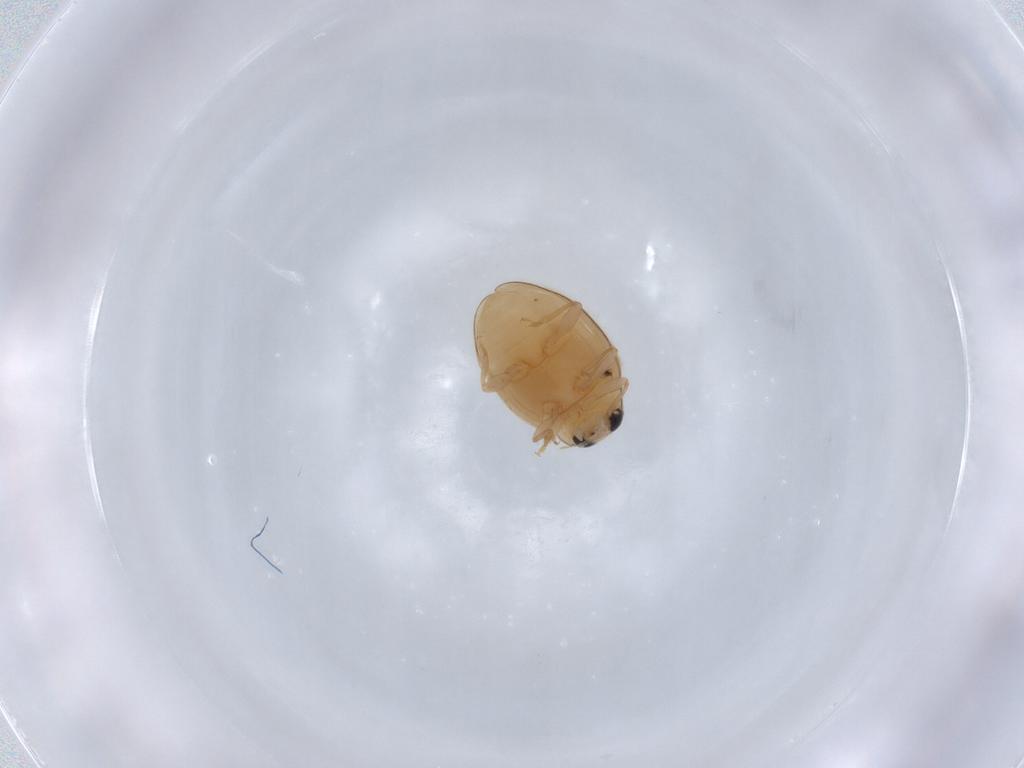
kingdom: Animalia
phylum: Arthropoda
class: Insecta
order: Coleoptera
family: Coccinellidae
